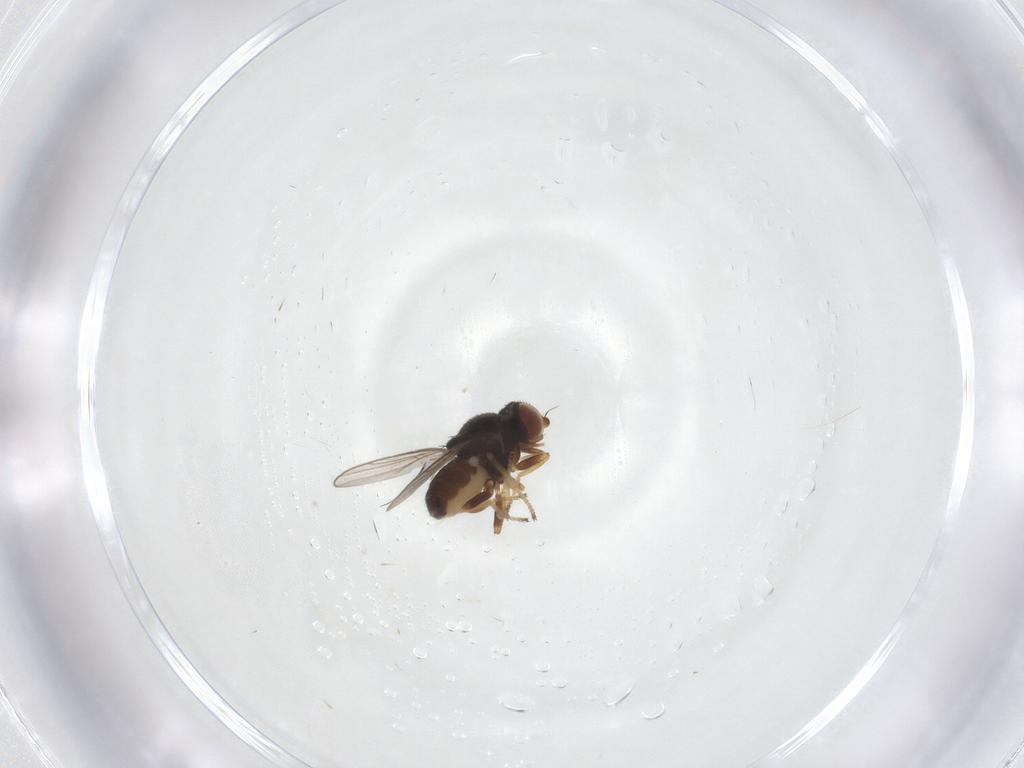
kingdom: Animalia
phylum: Arthropoda
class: Insecta
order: Diptera
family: Chloropidae
